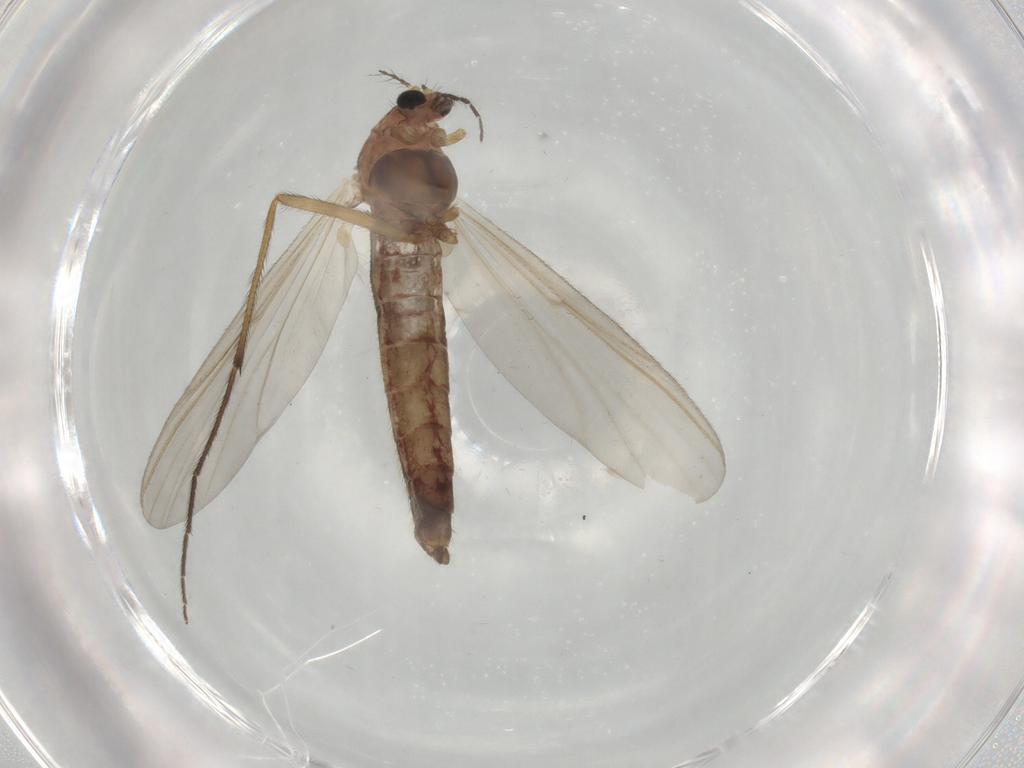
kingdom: Animalia
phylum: Arthropoda
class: Insecta
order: Diptera
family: Chironomidae
